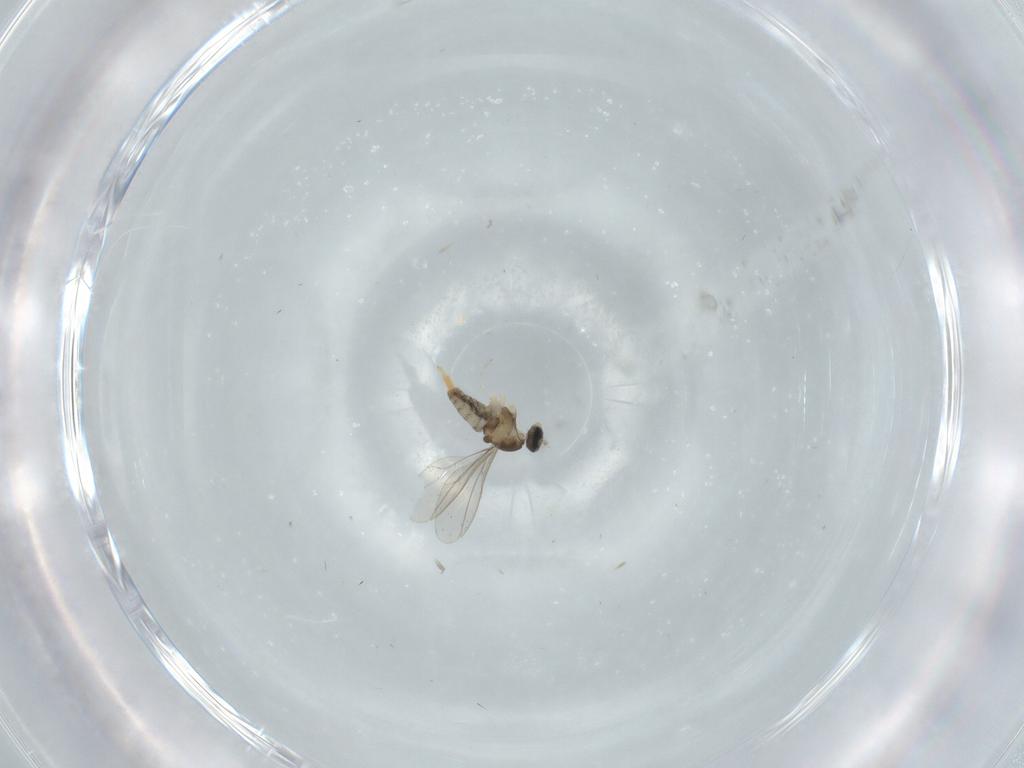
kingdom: Animalia
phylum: Arthropoda
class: Insecta
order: Diptera
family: Cecidomyiidae
